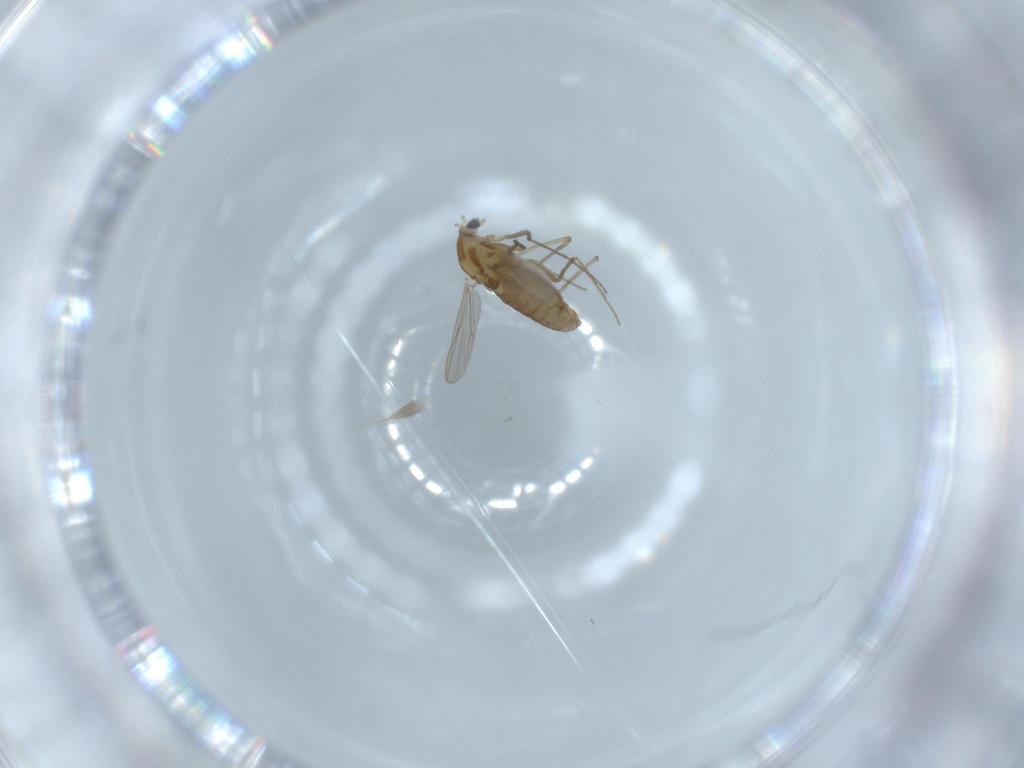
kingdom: Animalia
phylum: Arthropoda
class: Insecta
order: Diptera
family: Chironomidae
